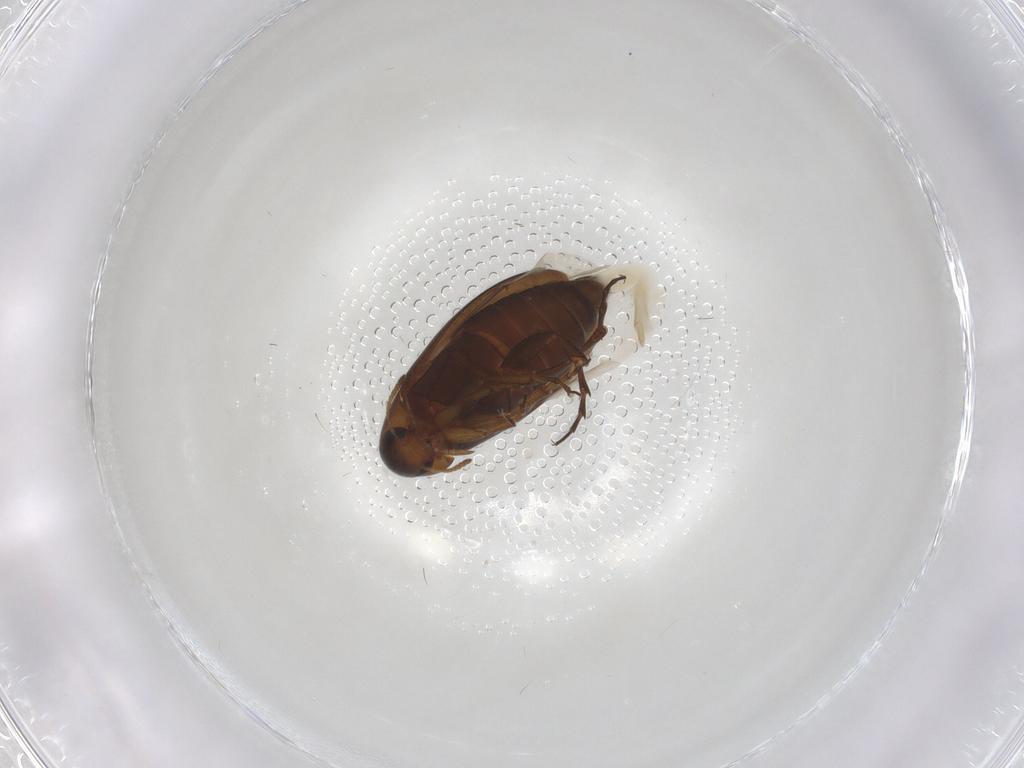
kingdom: Animalia
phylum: Arthropoda
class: Insecta
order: Coleoptera
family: Scraptiidae
